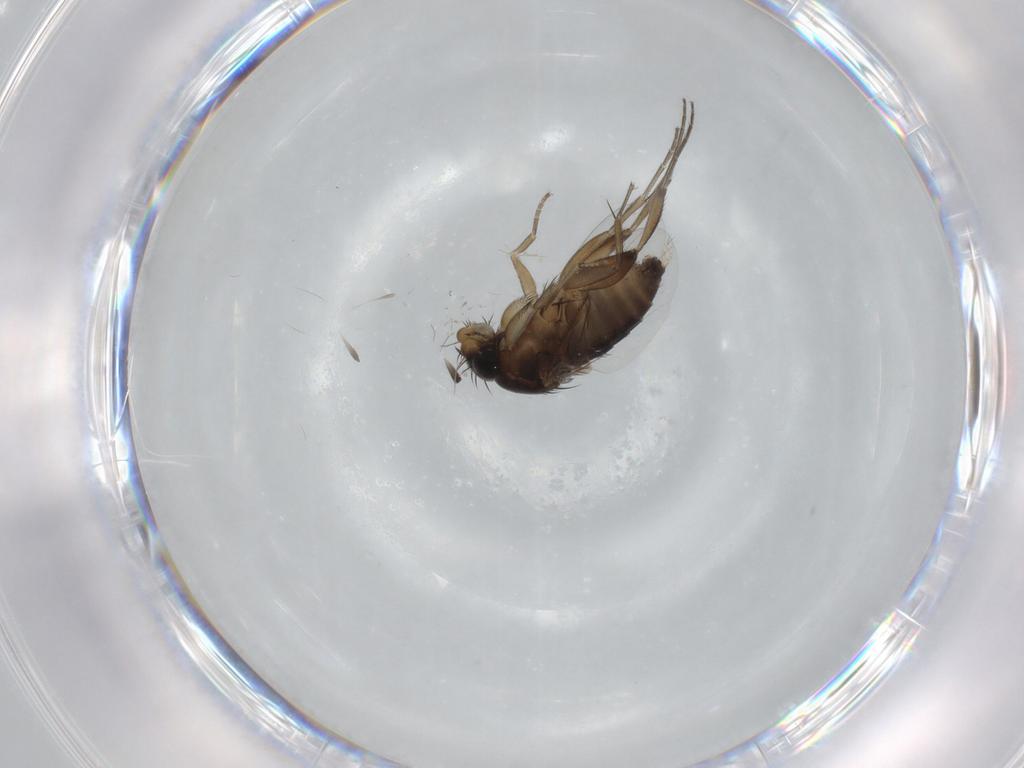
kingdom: Animalia
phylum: Arthropoda
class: Insecta
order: Diptera
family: Phoridae
